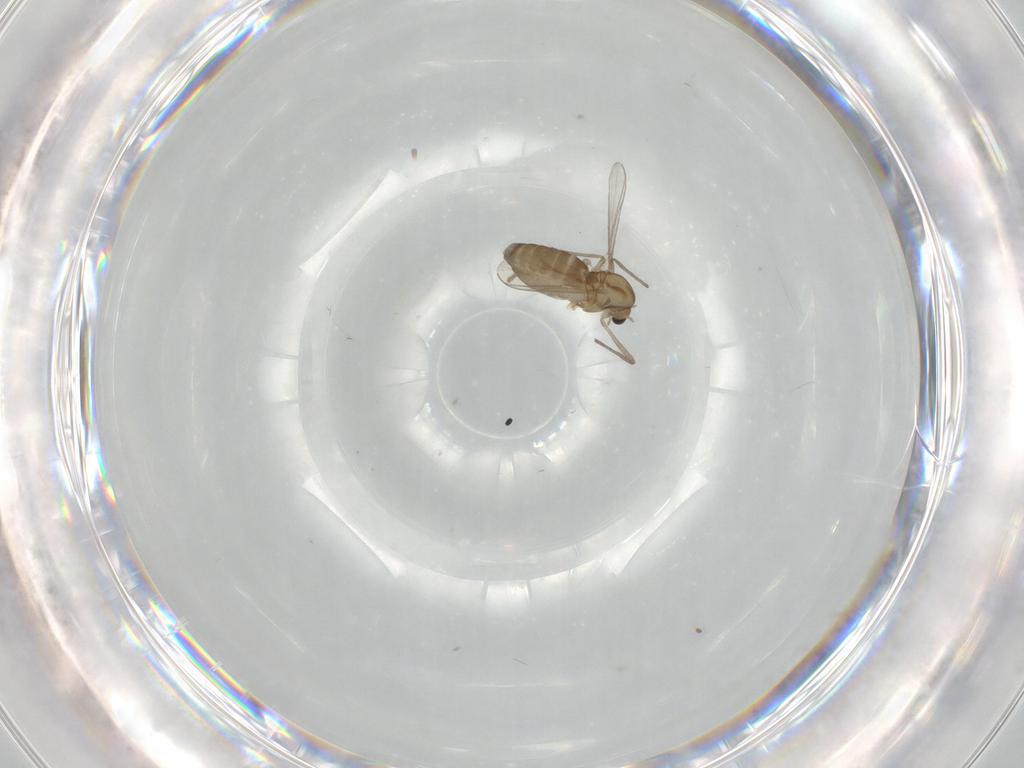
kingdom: Animalia
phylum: Arthropoda
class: Insecta
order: Diptera
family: Chironomidae
